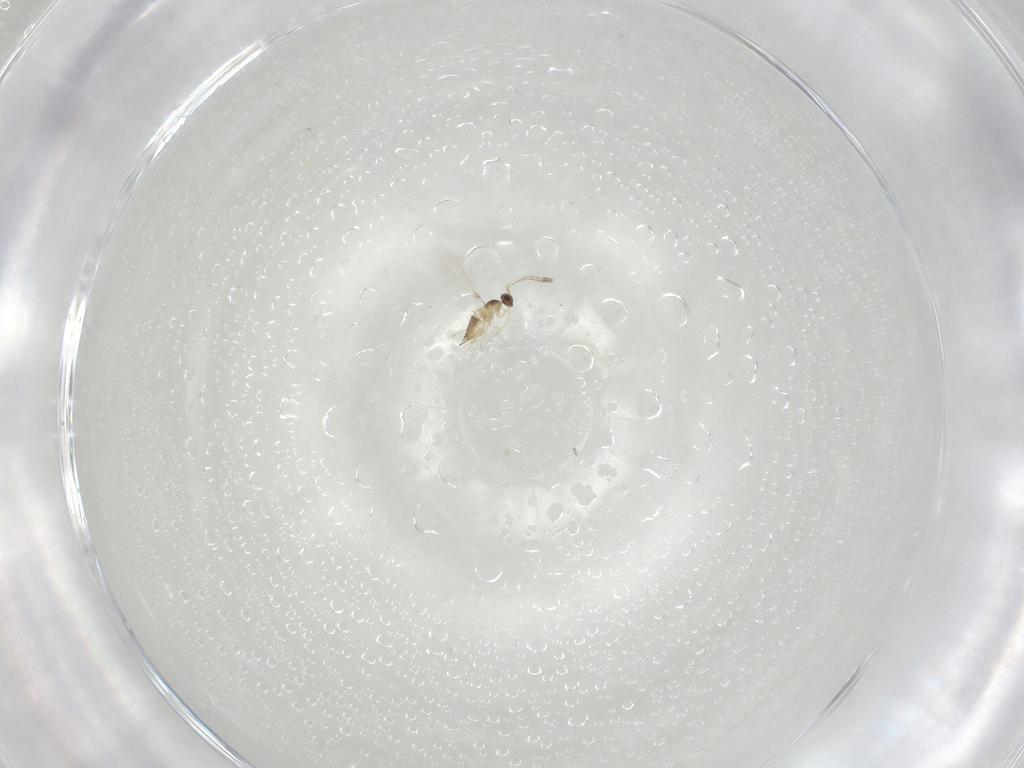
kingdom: Animalia
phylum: Arthropoda
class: Insecta
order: Hymenoptera
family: Mymaridae
